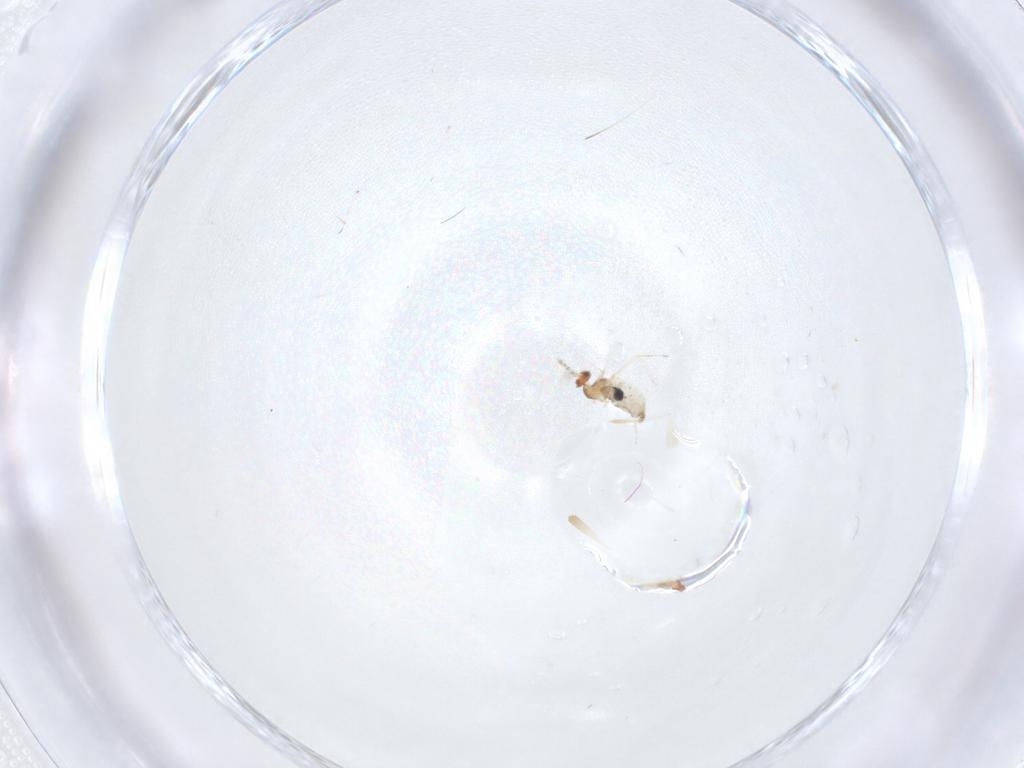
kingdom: Animalia
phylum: Arthropoda
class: Insecta
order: Diptera
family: Cecidomyiidae
